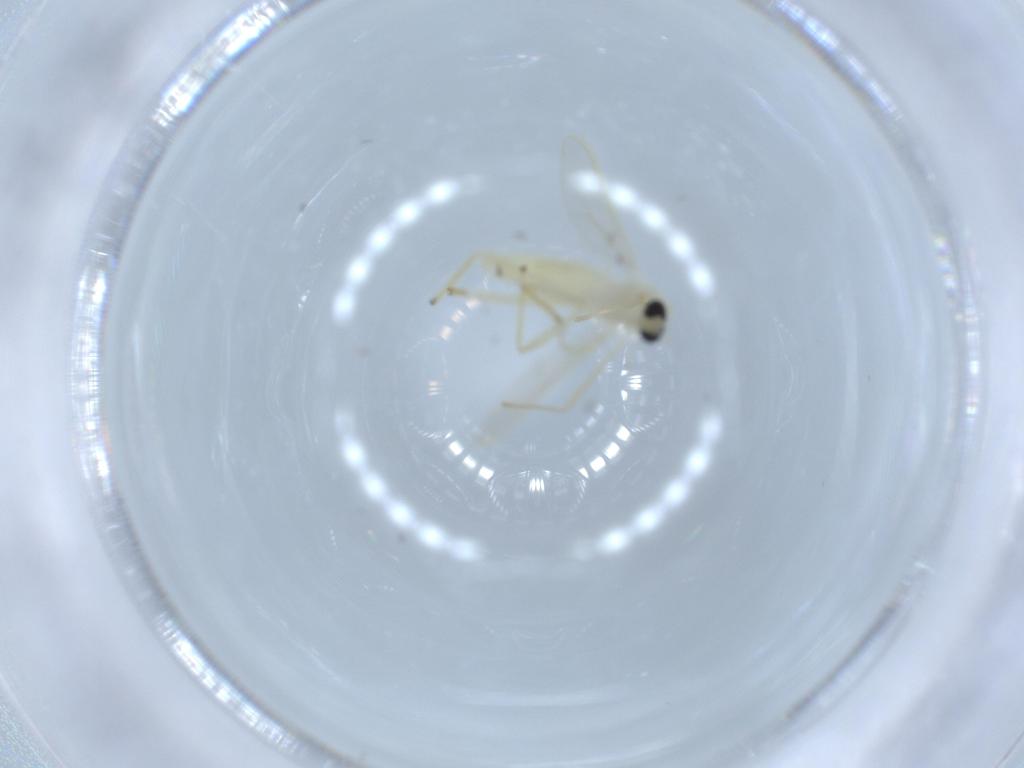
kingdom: Animalia
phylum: Arthropoda
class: Insecta
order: Diptera
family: Chironomidae
